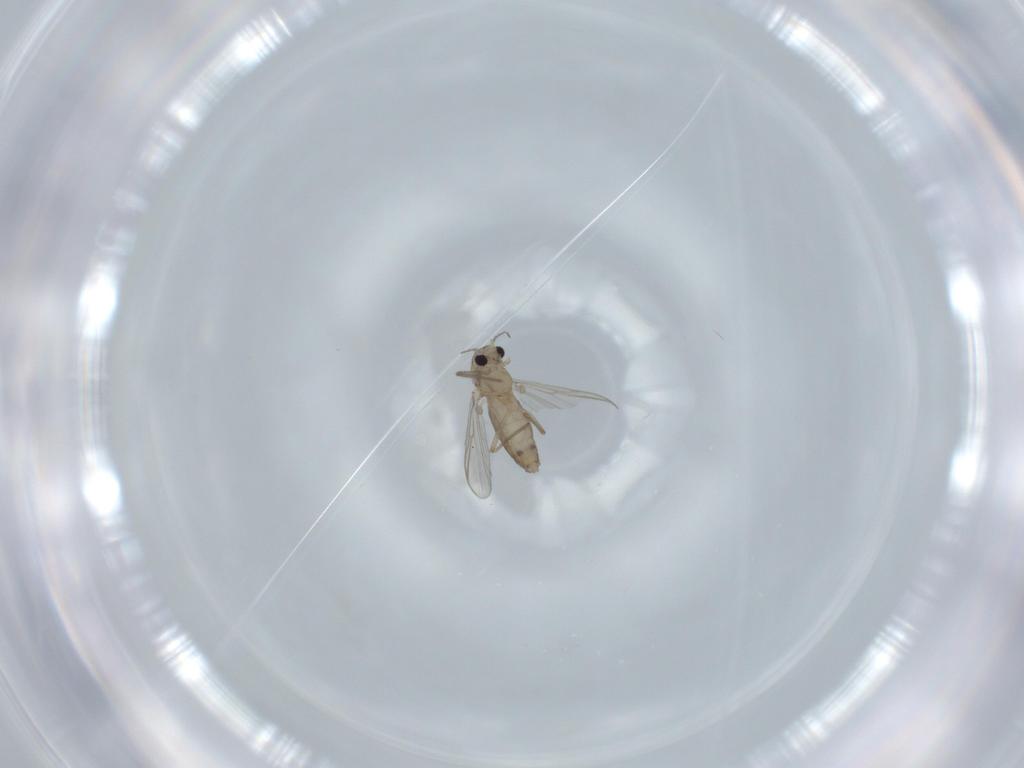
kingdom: Animalia
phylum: Arthropoda
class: Insecta
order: Diptera
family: Chironomidae
